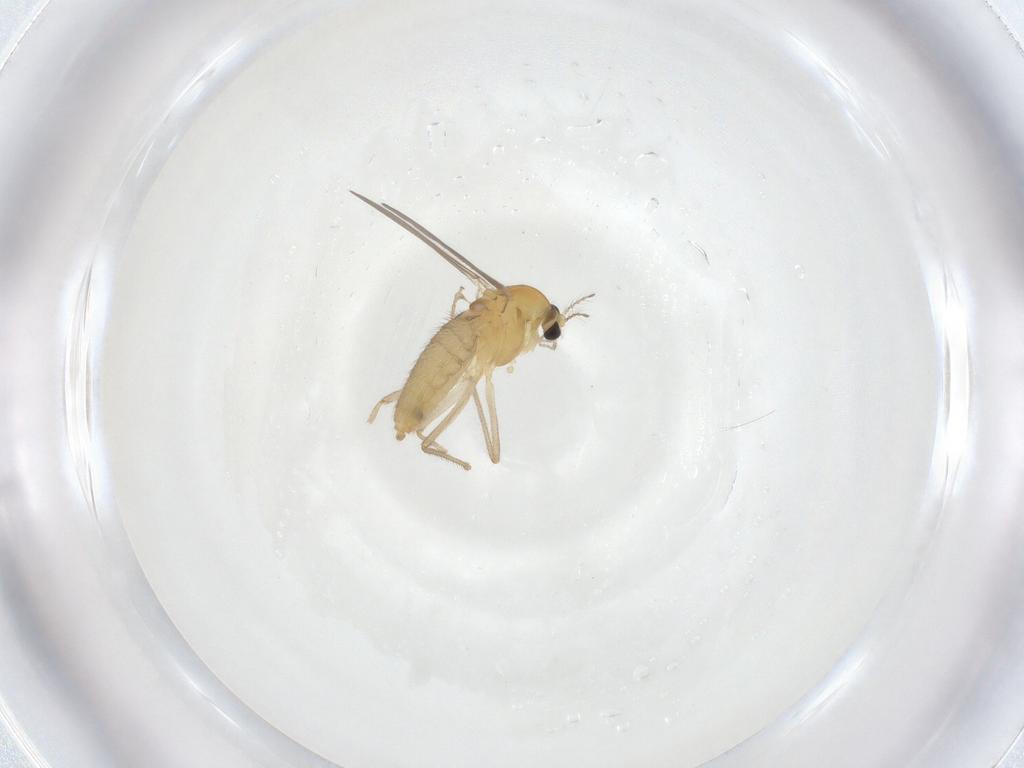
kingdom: Animalia
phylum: Arthropoda
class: Insecta
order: Diptera
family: Chironomidae
